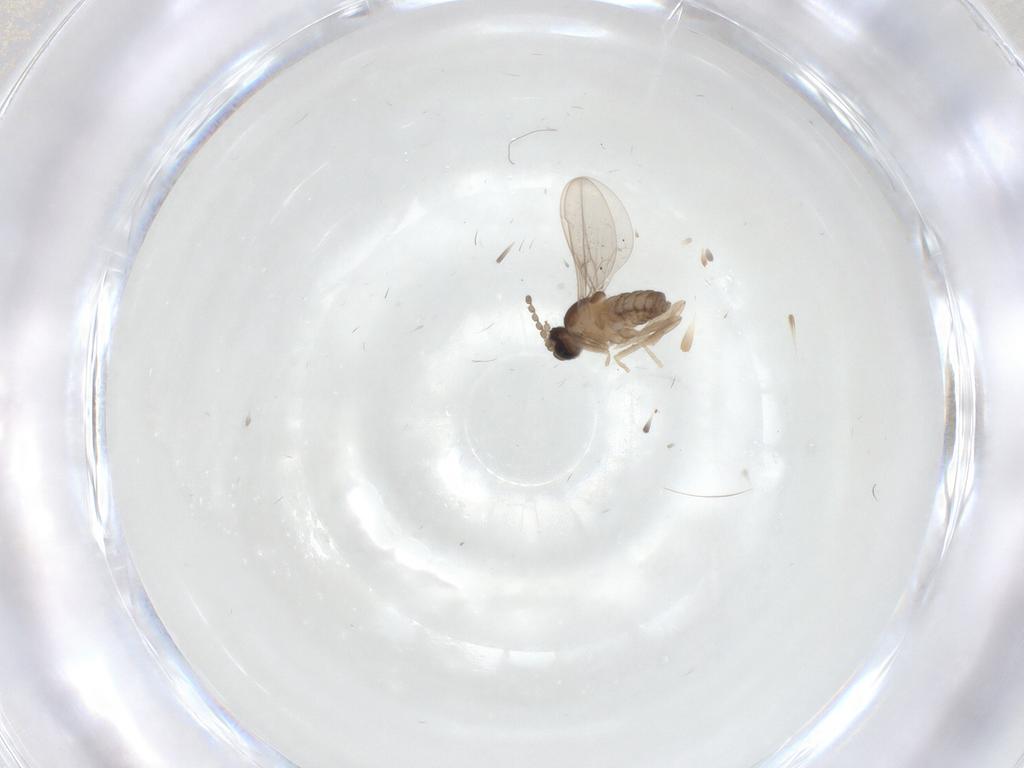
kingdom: Animalia
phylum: Arthropoda
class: Insecta
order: Diptera
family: Cecidomyiidae
